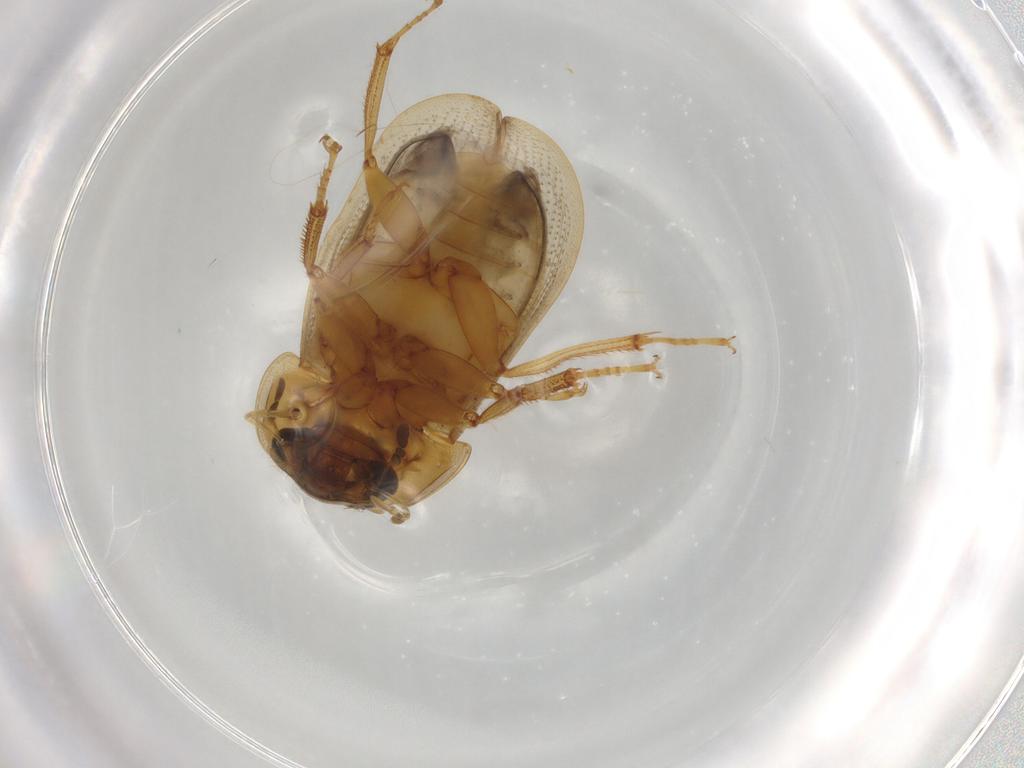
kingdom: Animalia
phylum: Arthropoda
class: Insecta
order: Coleoptera
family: Carabidae
